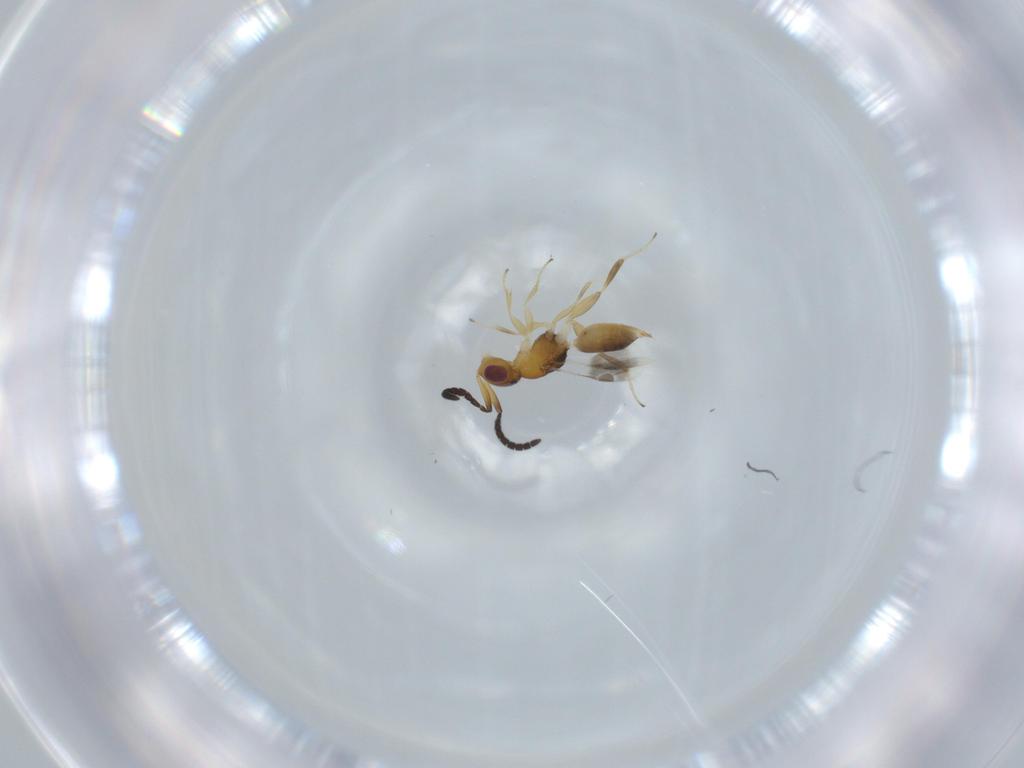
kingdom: Animalia
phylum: Arthropoda
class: Insecta
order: Hymenoptera
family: Megaspilidae
